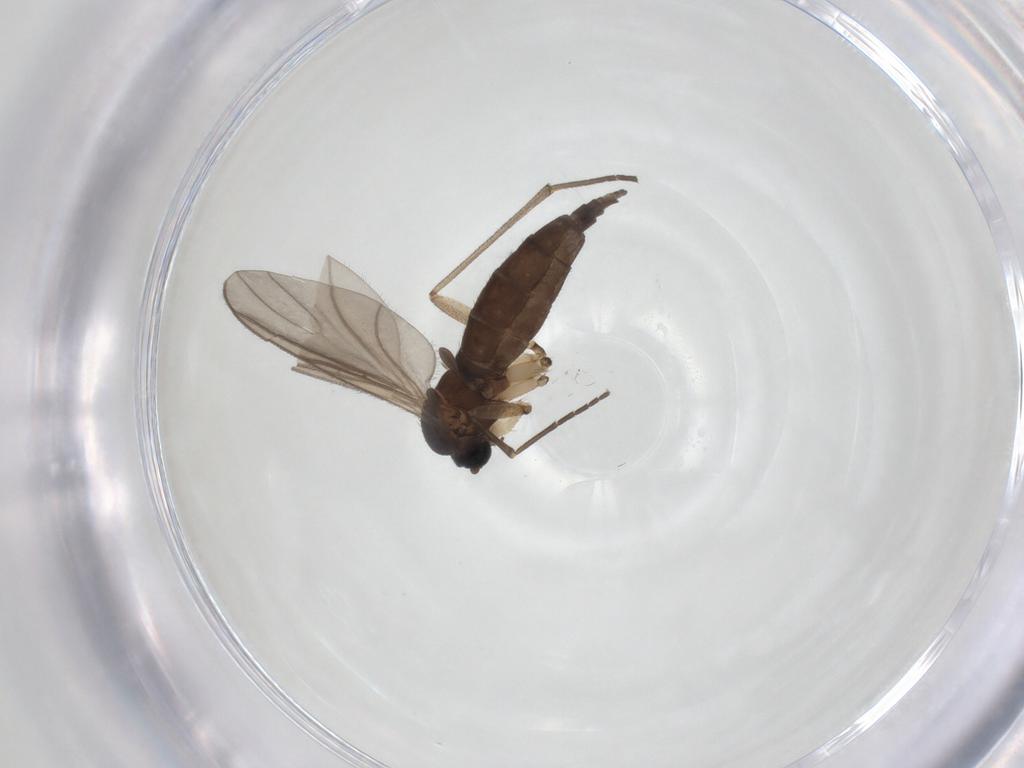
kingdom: Animalia
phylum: Arthropoda
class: Insecta
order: Diptera
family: Sciaridae
